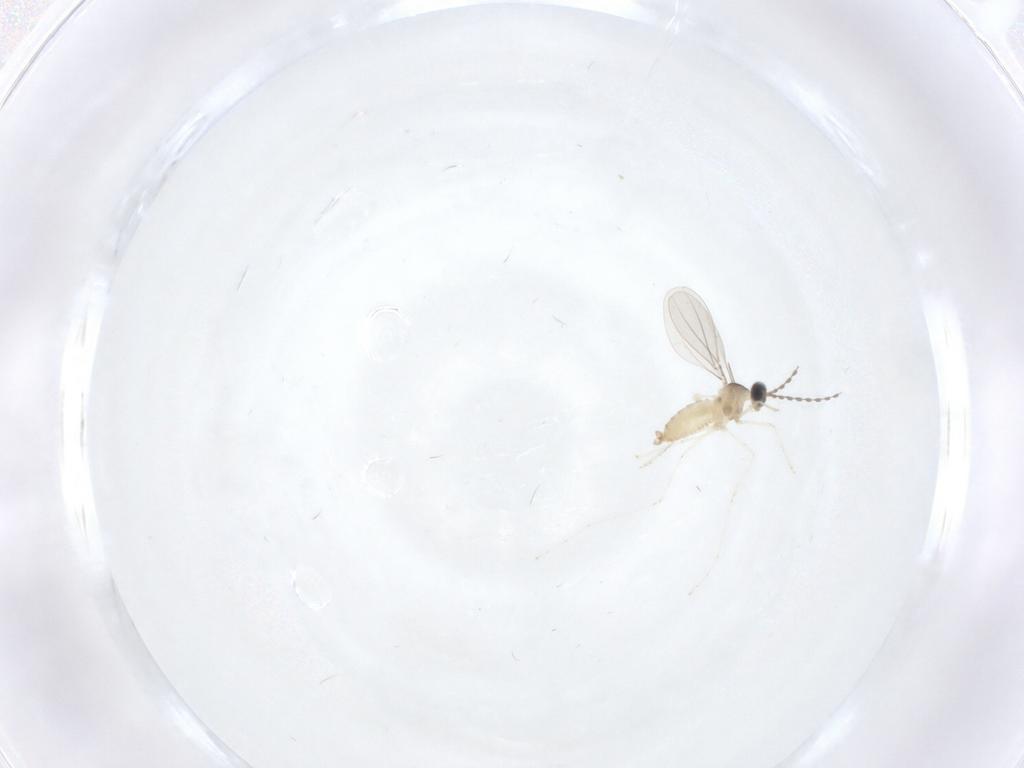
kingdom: Animalia
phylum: Arthropoda
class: Insecta
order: Diptera
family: Cecidomyiidae
